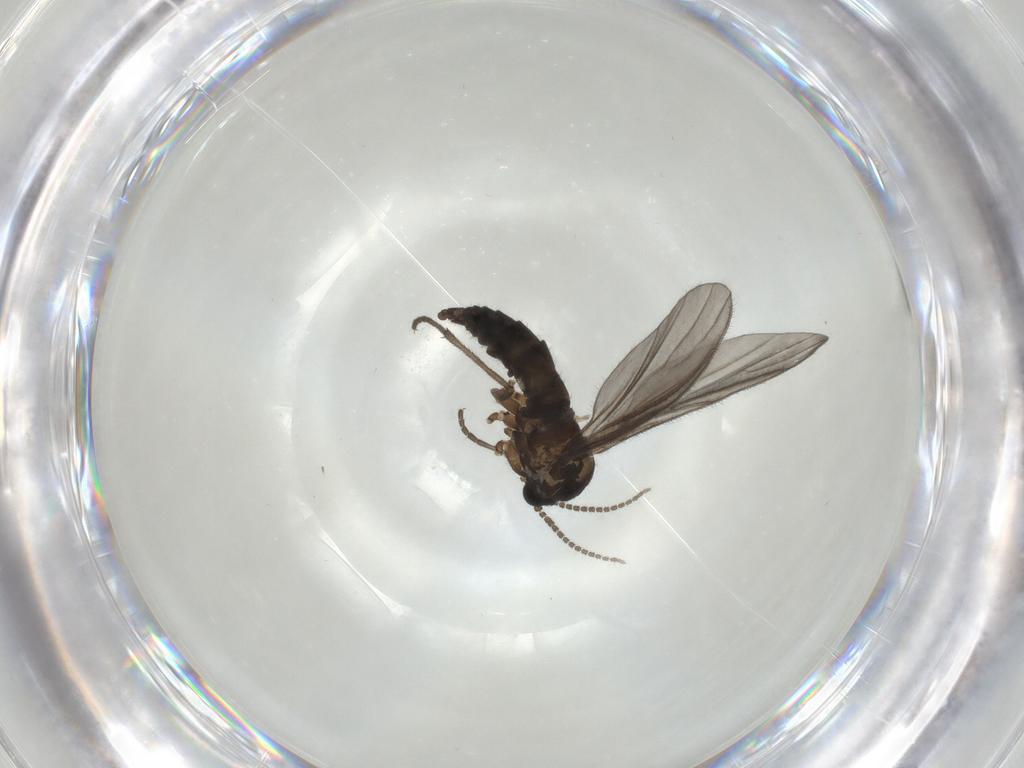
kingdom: Animalia
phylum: Arthropoda
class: Insecta
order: Diptera
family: Sciaridae
